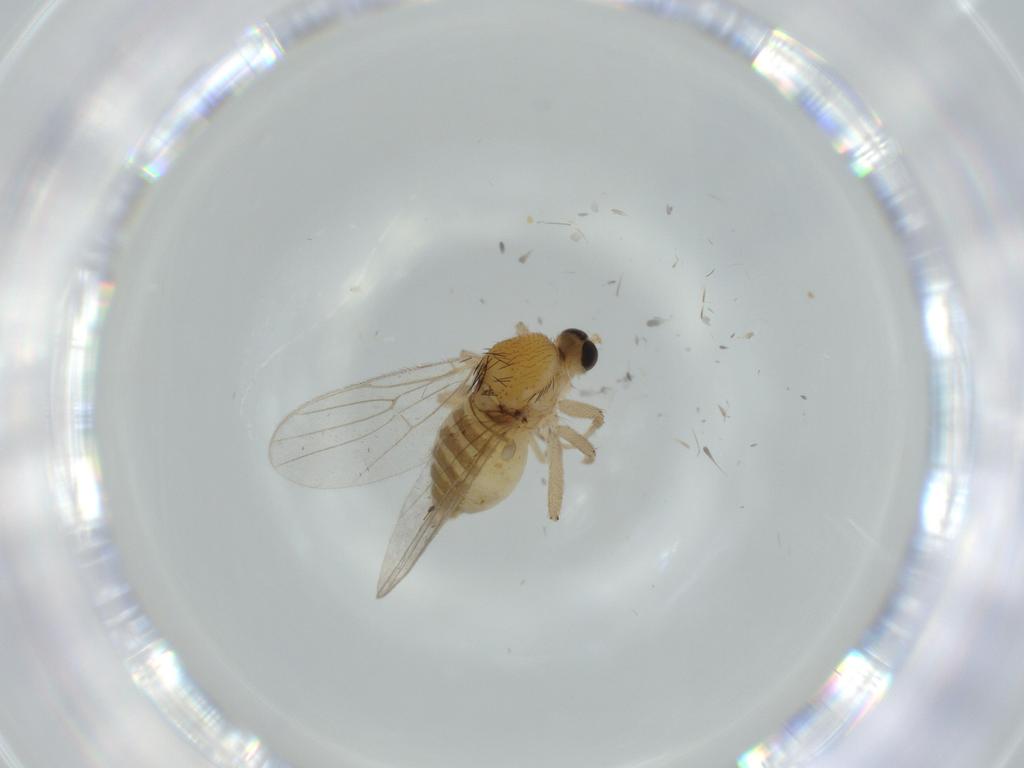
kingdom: Animalia
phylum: Arthropoda
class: Insecta
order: Diptera
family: Hybotidae
